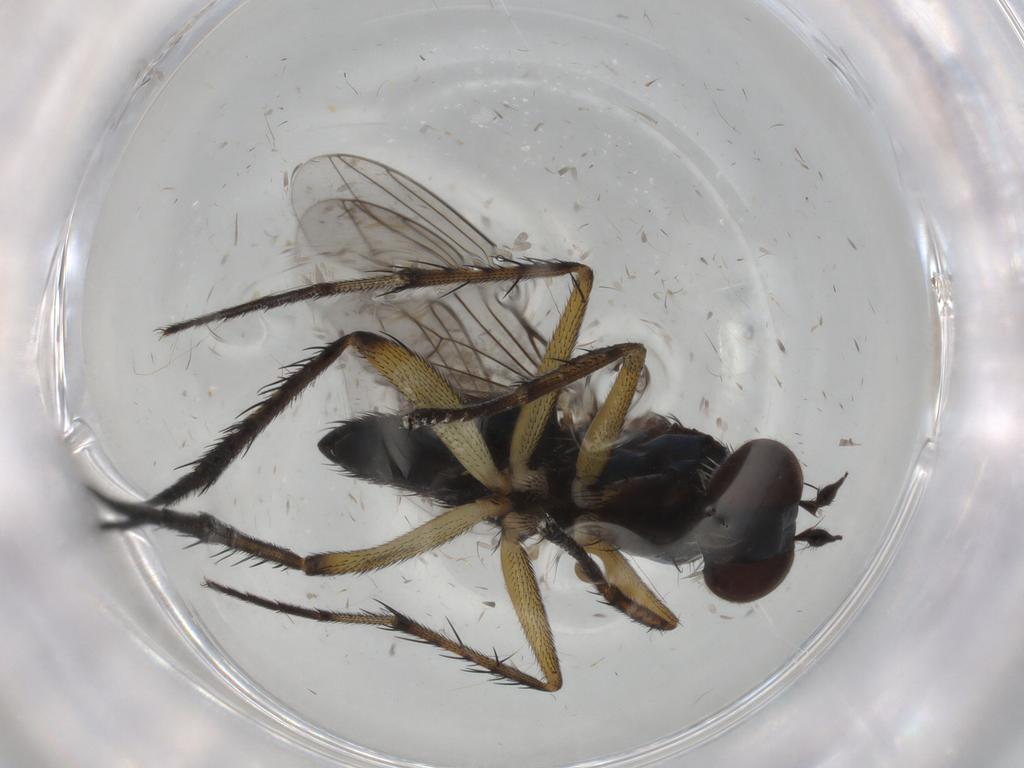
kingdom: Animalia
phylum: Arthropoda
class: Insecta
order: Diptera
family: Dolichopodidae
